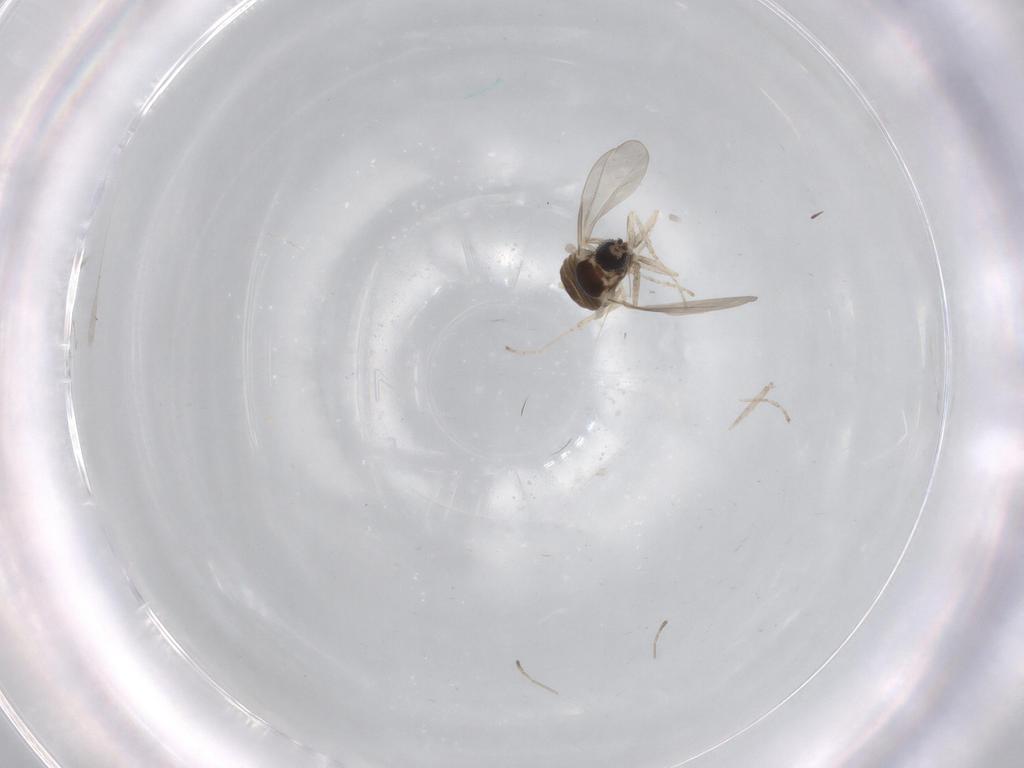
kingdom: Animalia
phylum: Arthropoda
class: Insecta
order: Diptera
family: Cecidomyiidae
